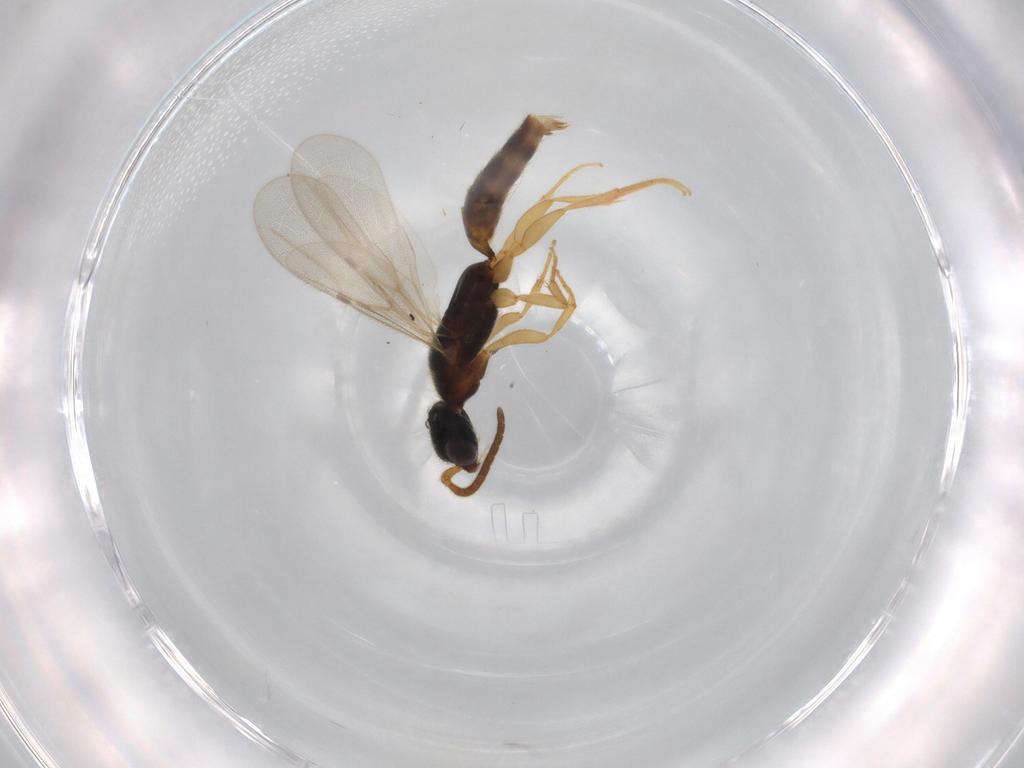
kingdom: Animalia
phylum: Arthropoda
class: Insecta
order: Hymenoptera
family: Bethylidae
